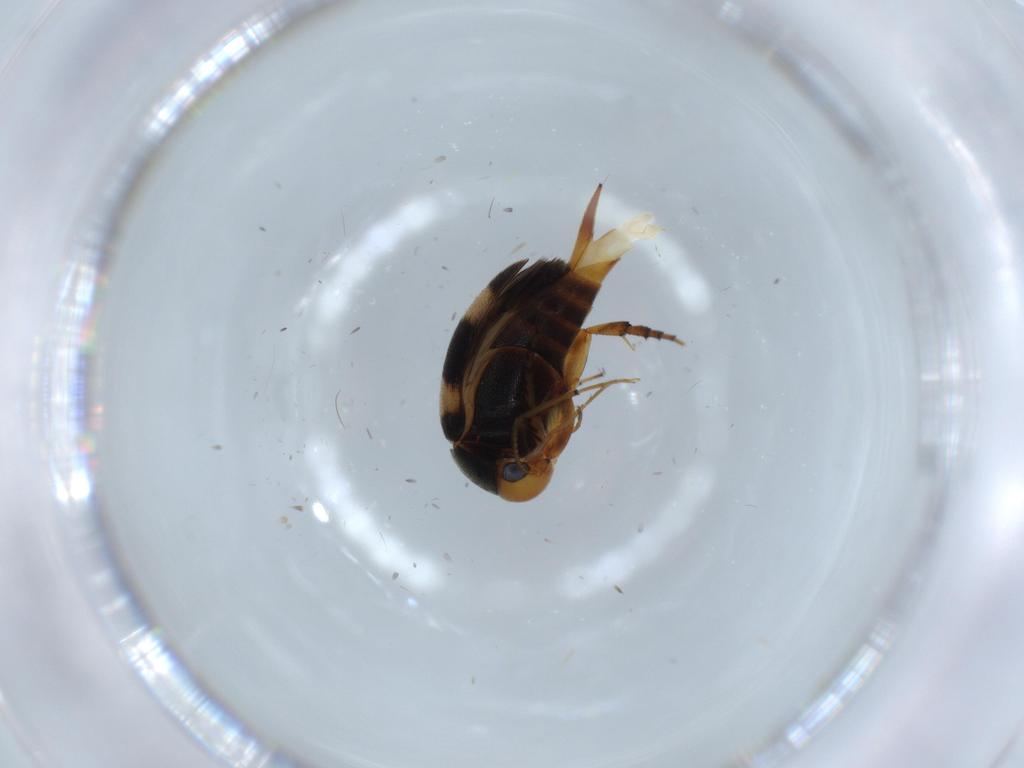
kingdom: Animalia
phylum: Arthropoda
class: Insecta
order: Coleoptera
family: Mordellidae
